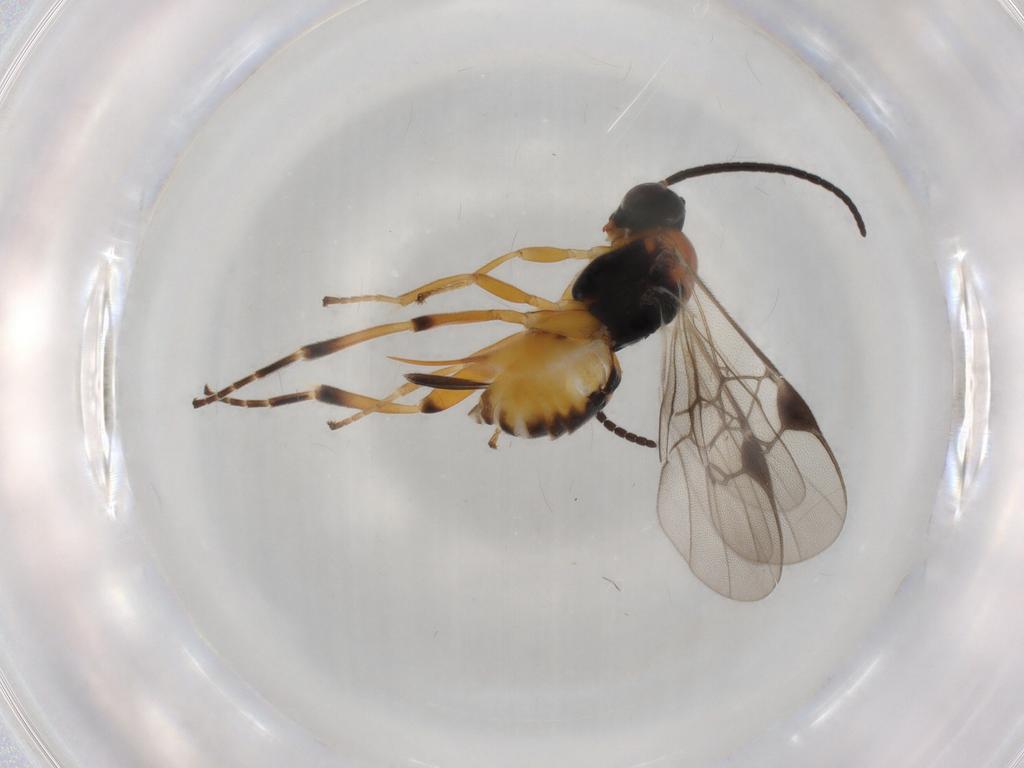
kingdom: Animalia
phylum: Arthropoda
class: Insecta
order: Hymenoptera
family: Braconidae
